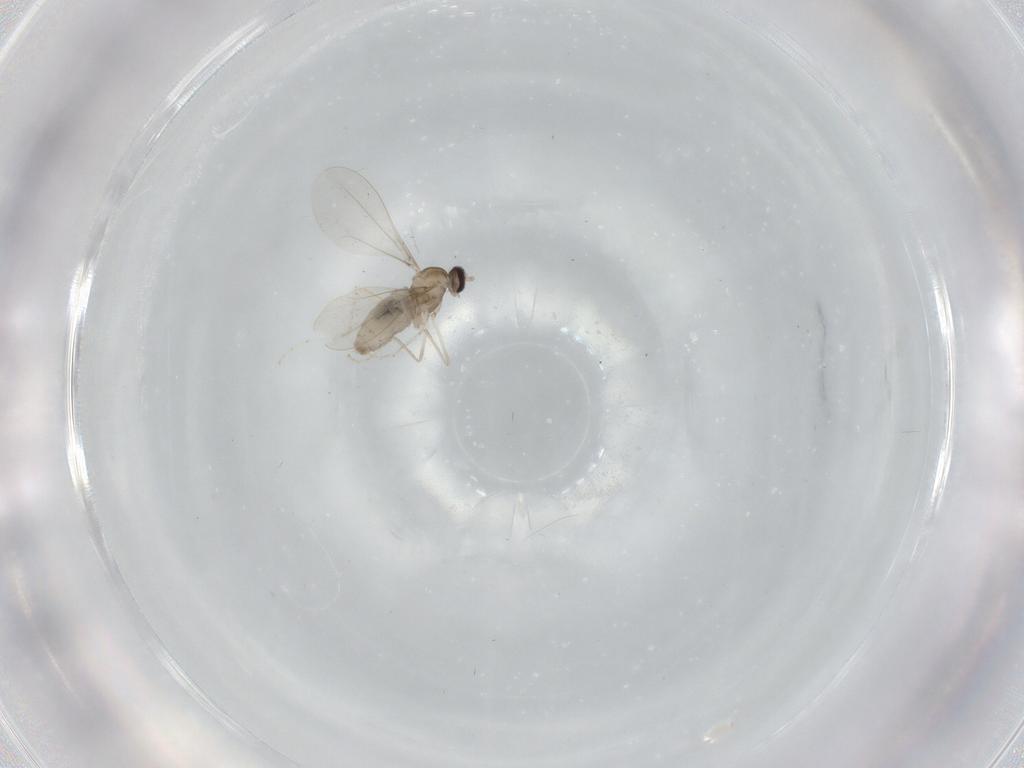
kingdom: Animalia
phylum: Arthropoda
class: Insecta
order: Diptera
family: Cecidomyiidae
